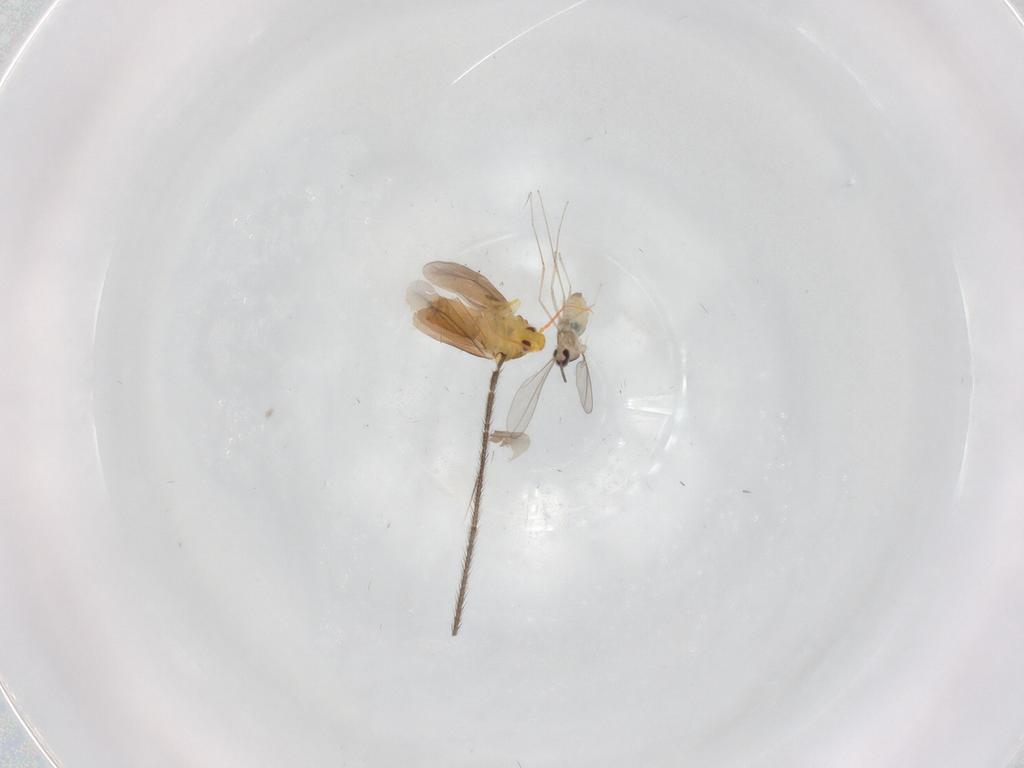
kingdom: Animalia
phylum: Arthropoda
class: Insecta
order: Diptera
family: Cecidomyiidae
